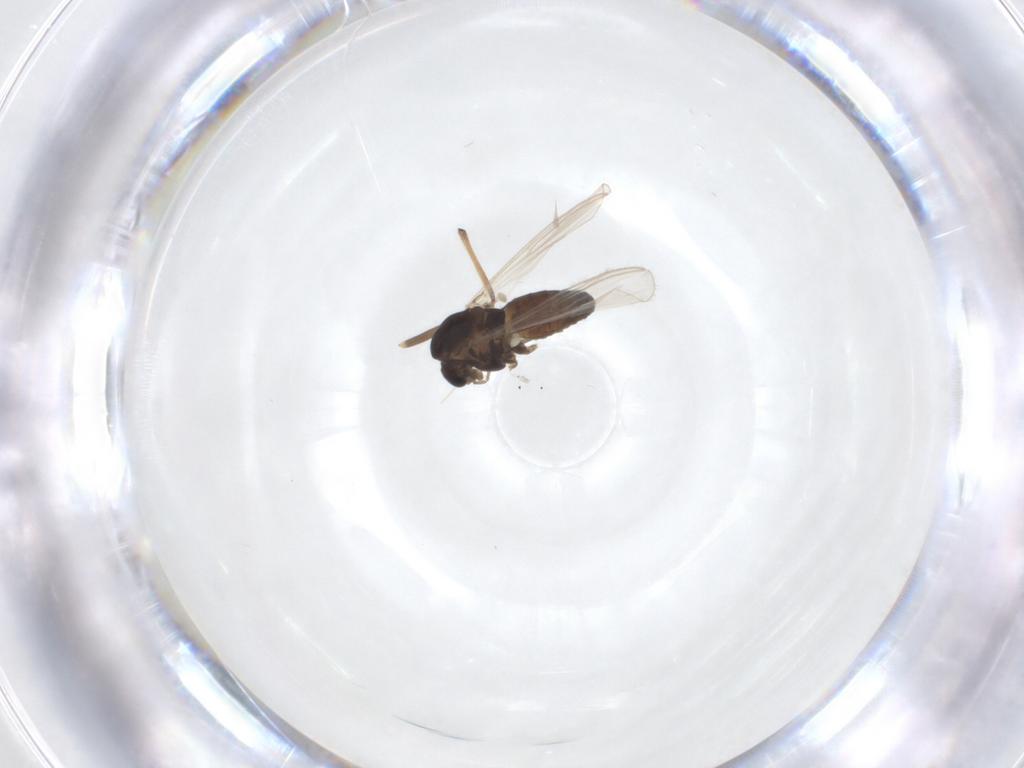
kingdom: Animalia
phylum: Arthropoda
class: Insecta
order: Diptera
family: Chironomidae
